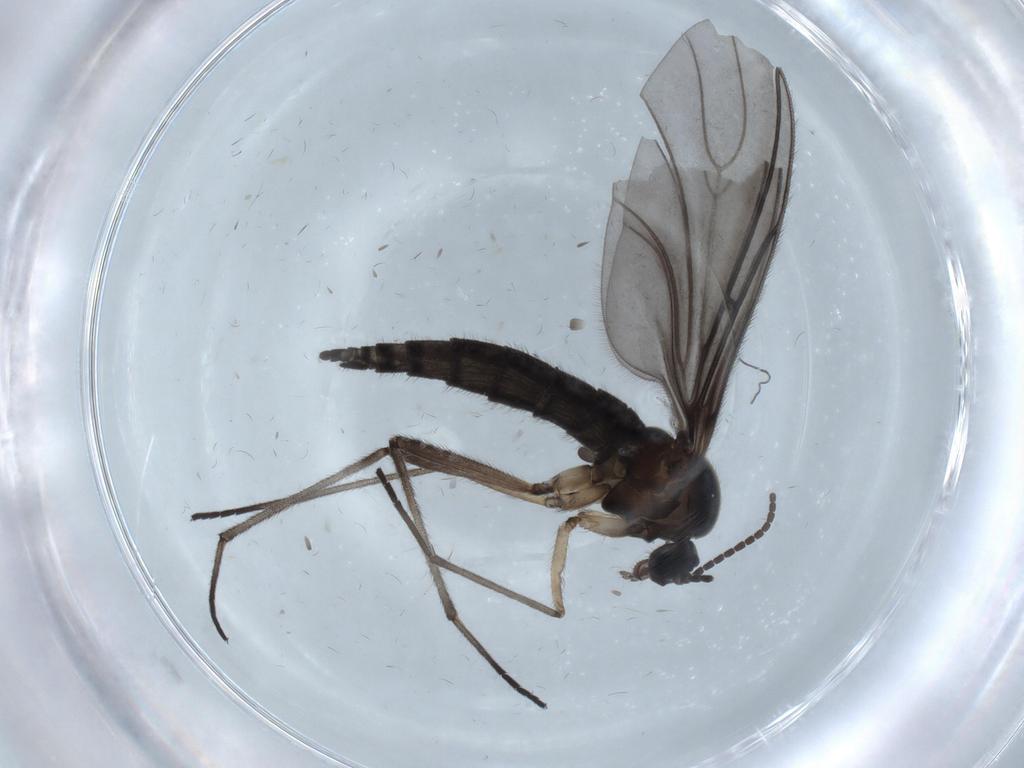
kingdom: Animalia
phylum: Arthropoda
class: Insecta
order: Diptera
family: Sciaridae
